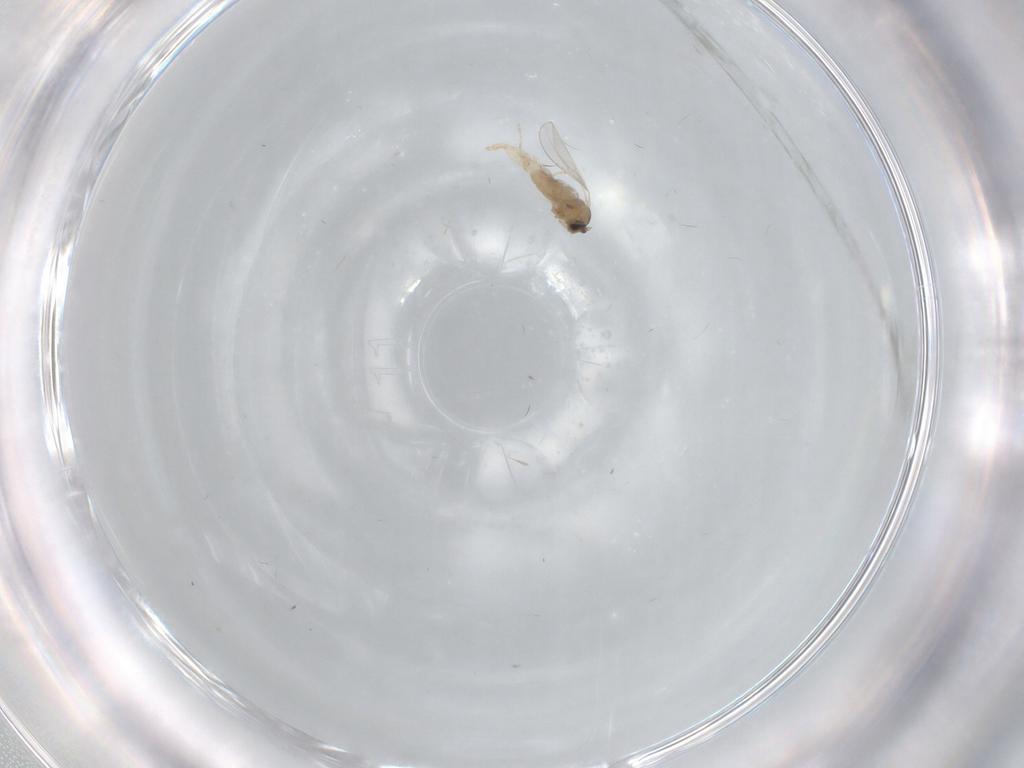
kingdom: Animalia
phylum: Arthropoda
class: Insecta
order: Diptera
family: Cecidomyiidae
